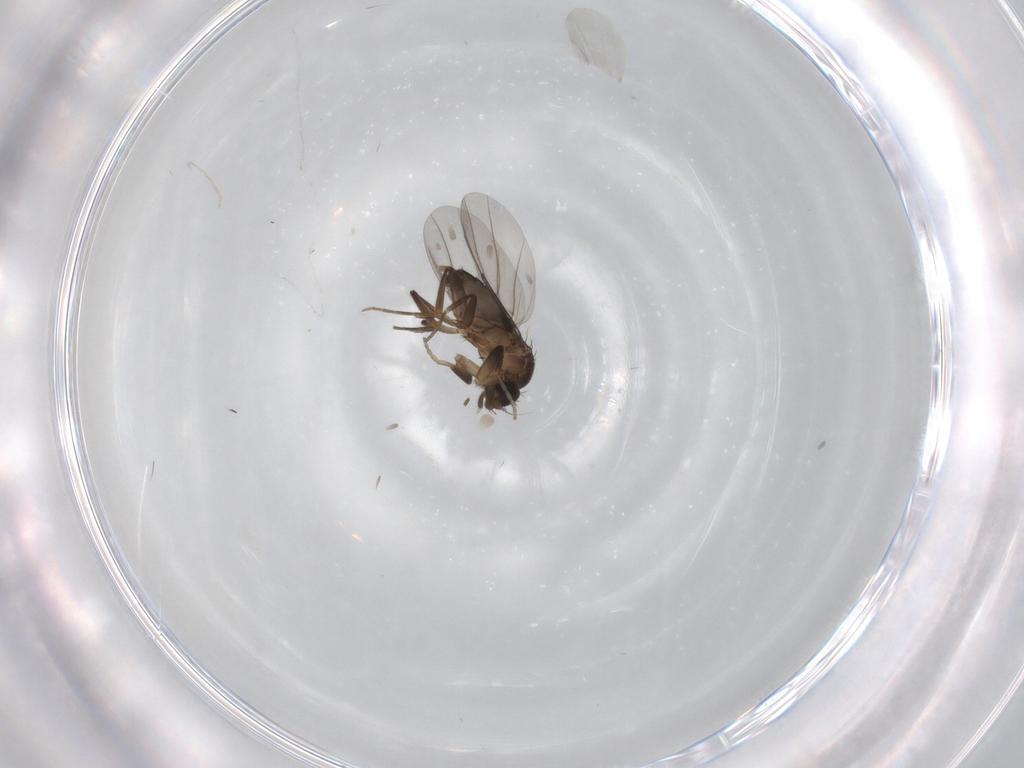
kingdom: Animalia
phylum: Arthropoda
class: Insecta
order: Diptera
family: Phoridae
